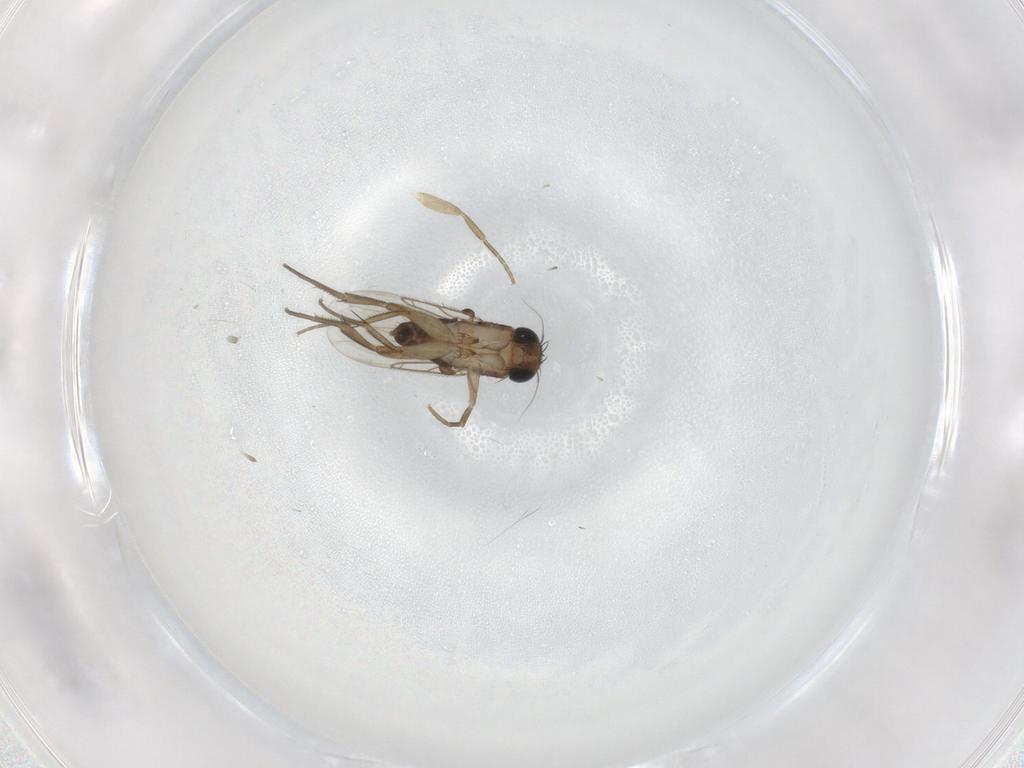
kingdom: Animalia
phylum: Arthropoda
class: Insecta
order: Diptera
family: Phoridae
